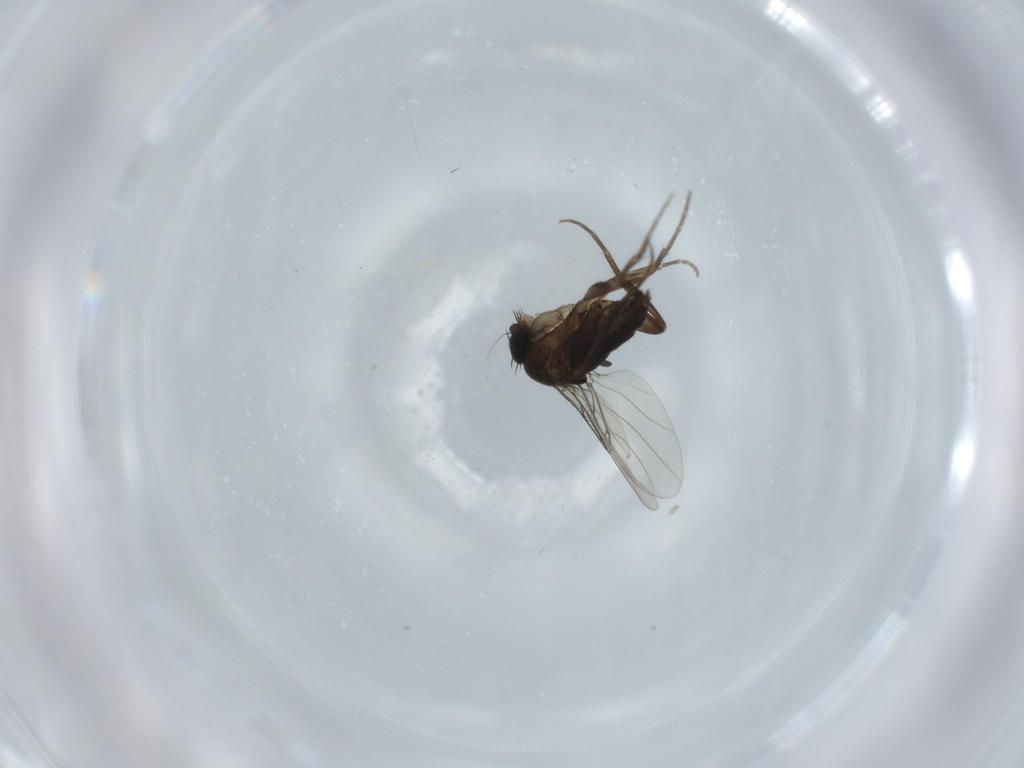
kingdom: Animalia
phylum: Arthropoda
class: Insecta
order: Diptera
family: Phoridae
